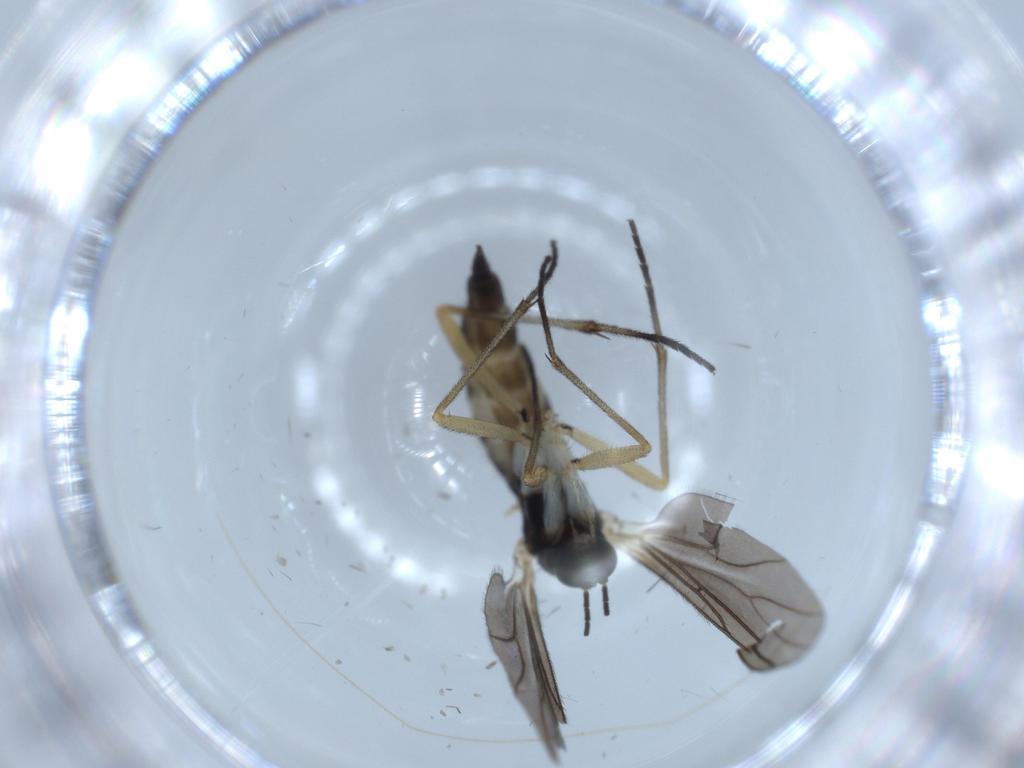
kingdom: Animalia
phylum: Arthropoda
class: Insecta
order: Diptera
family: Sciaridae
